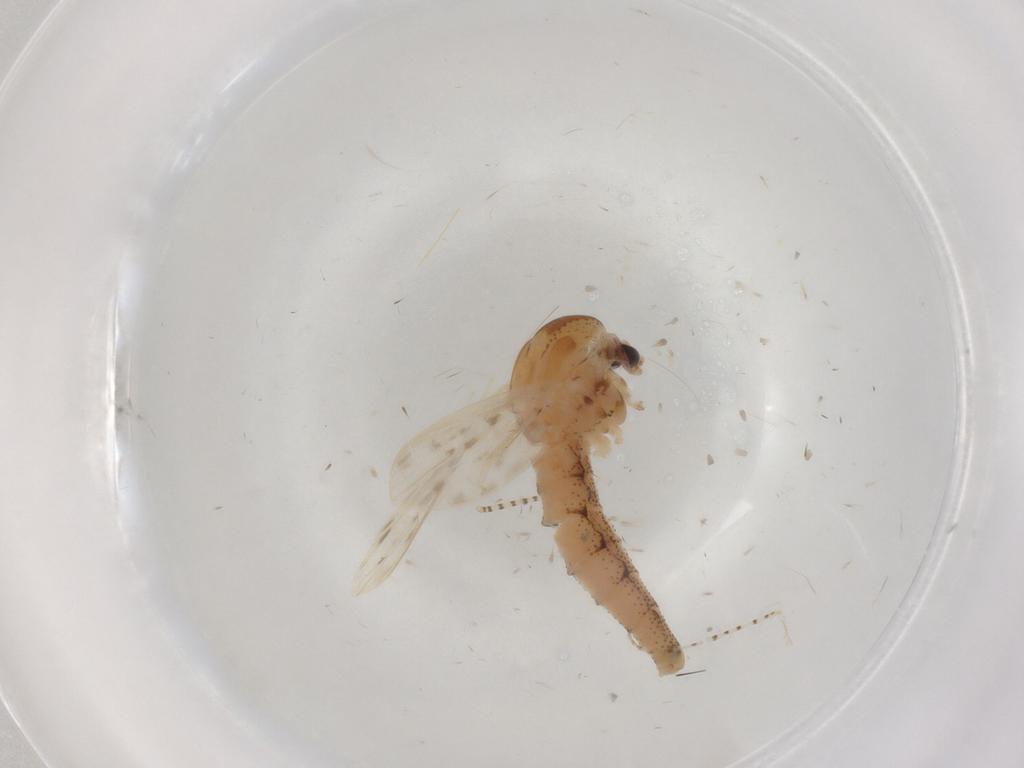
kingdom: Animalia
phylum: Arthropoda
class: Insecta
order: Diptera
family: Chaoboridae
